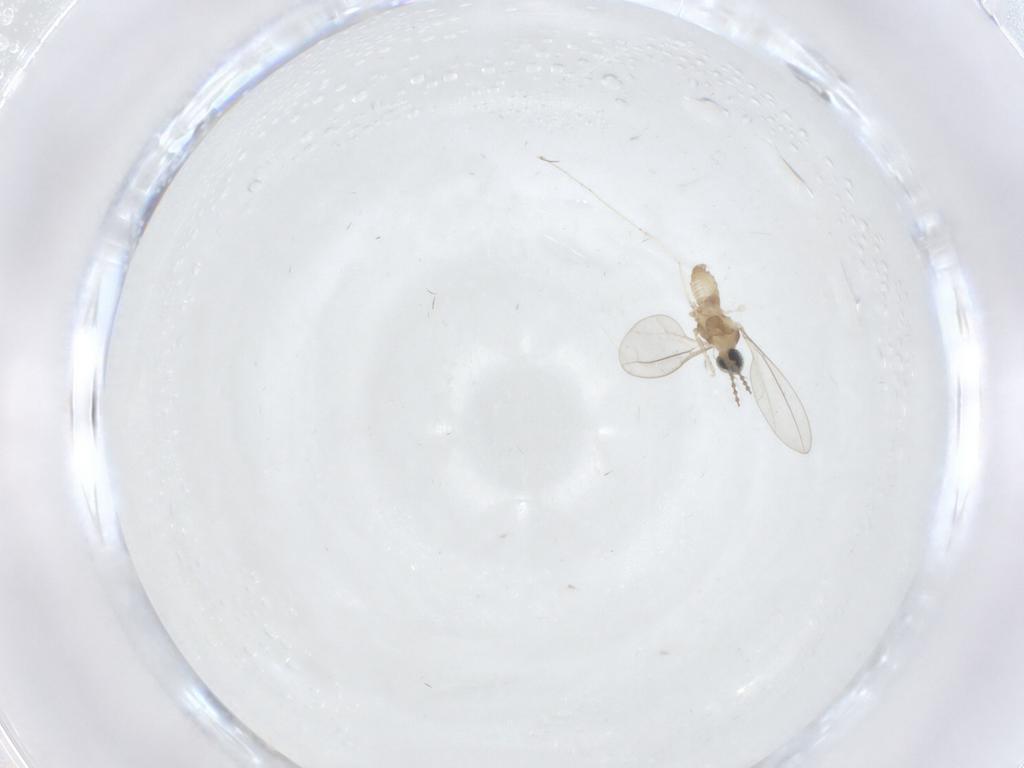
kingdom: Animalia
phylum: Arthropoda
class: Insecta
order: Diptera
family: Cecidomyiidae
